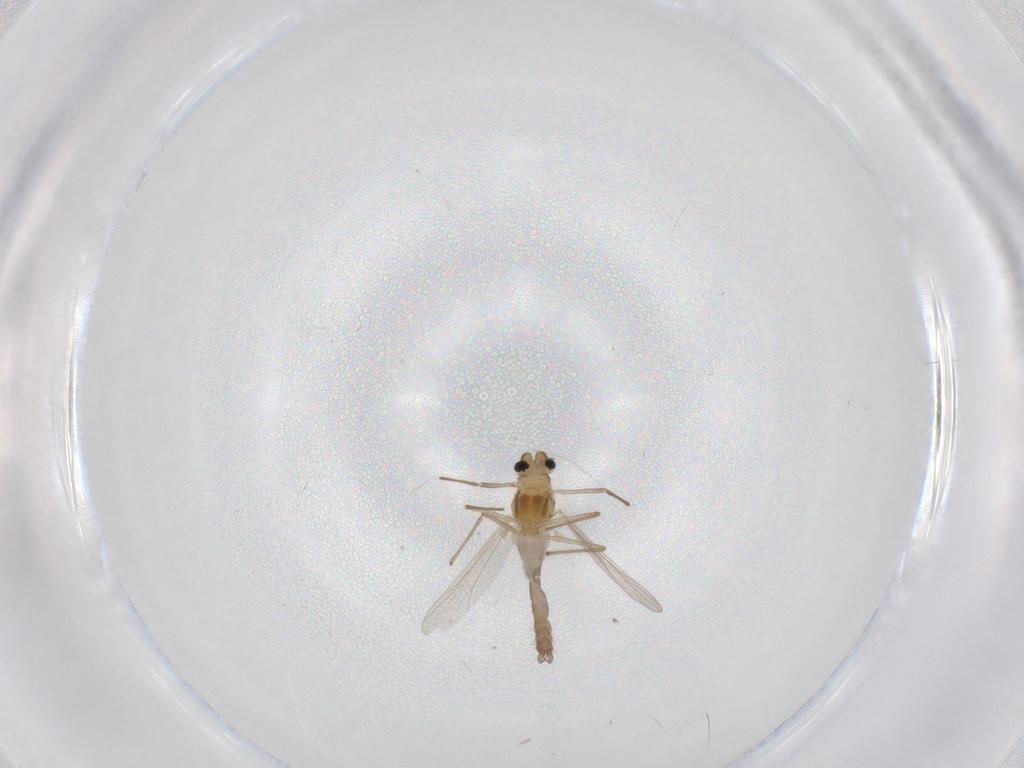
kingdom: Animalia
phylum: Arthropoda
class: Insecta
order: Diptera
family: Chironomidae
